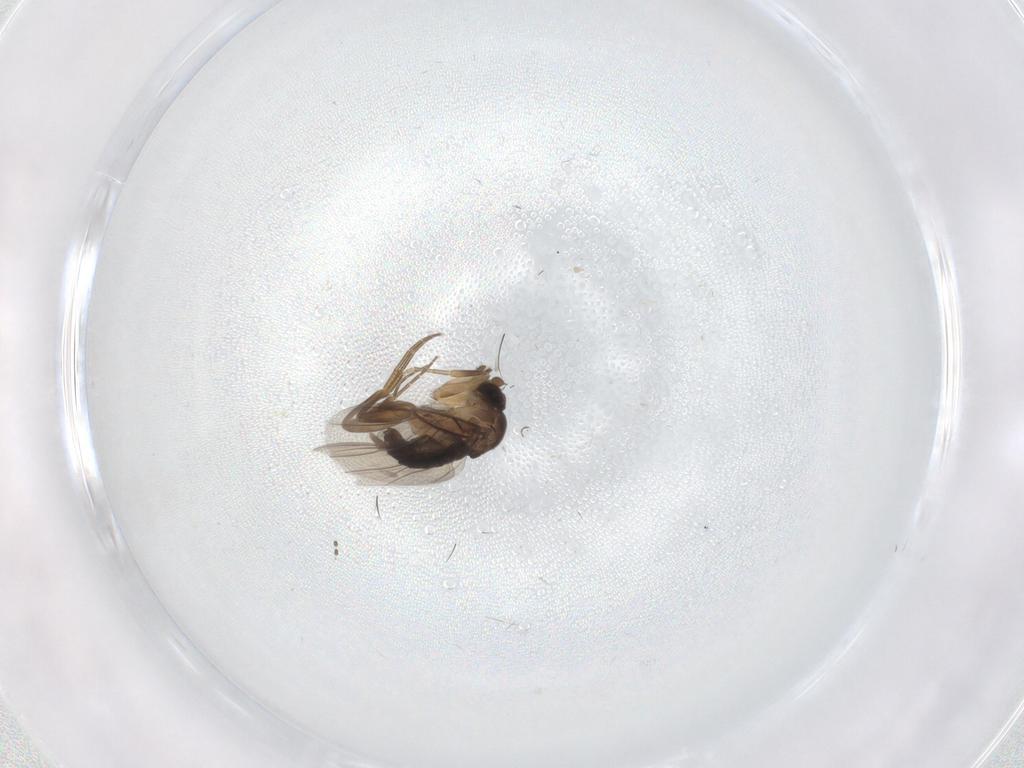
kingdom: Animalia
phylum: Arthropoda
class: Insecta
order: Diptera
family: Phoridae
